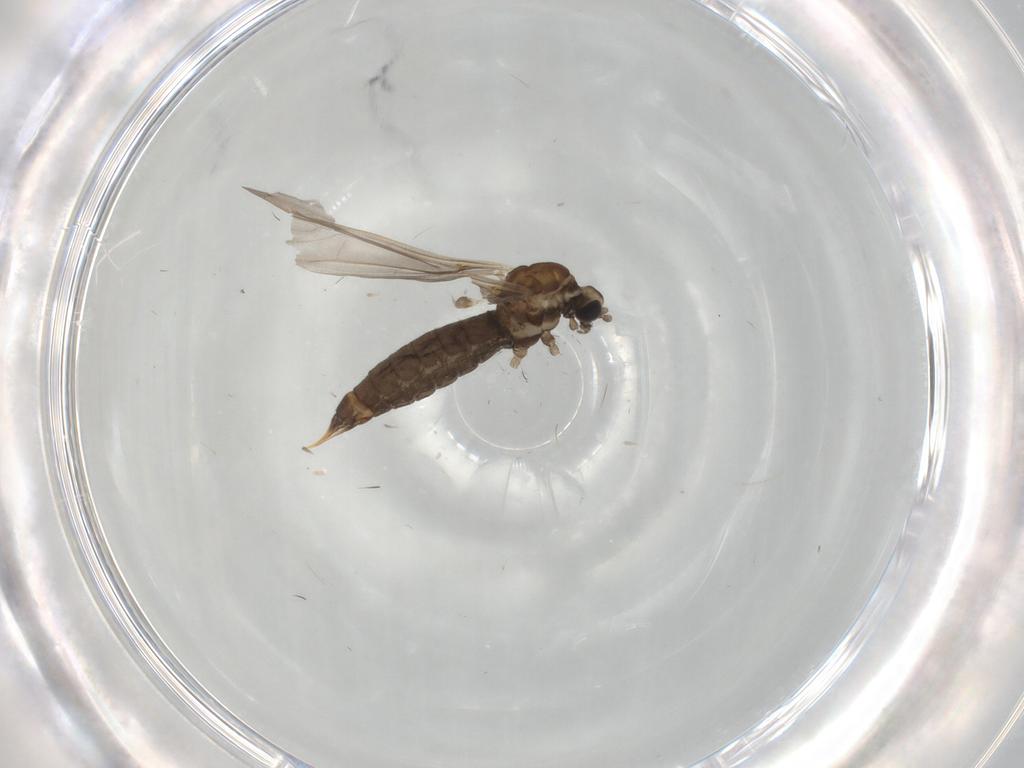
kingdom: Animalia
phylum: Arthropoda
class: Insecta
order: Diptera
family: Limoniidae
